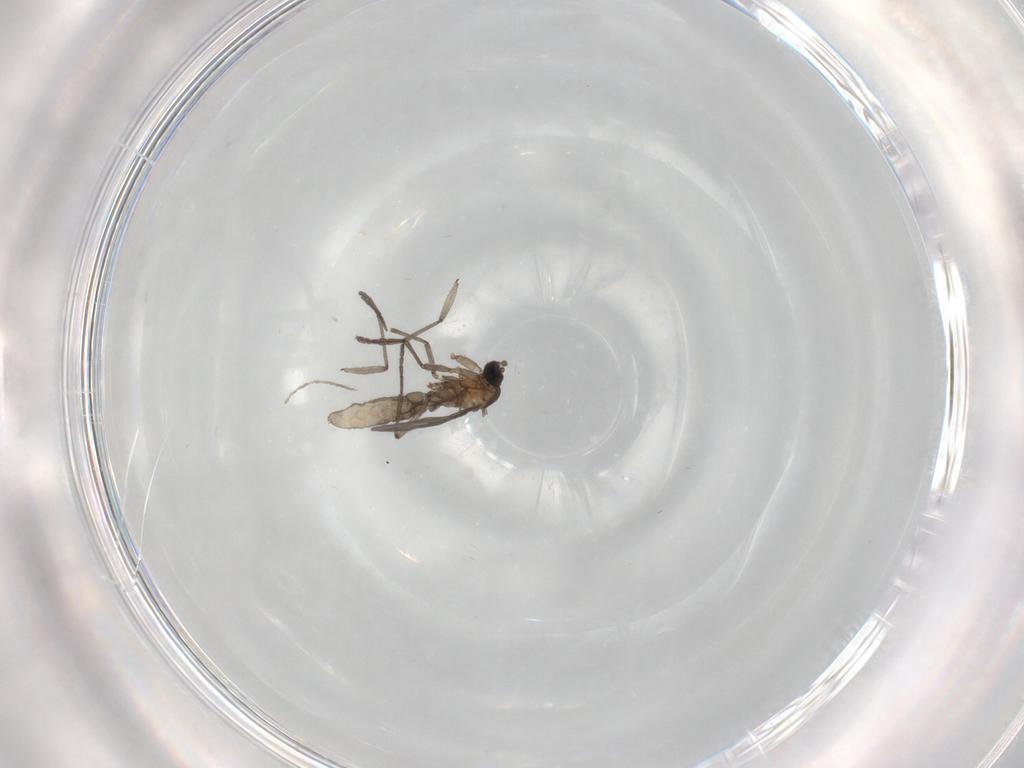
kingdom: Animalia
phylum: Arthropoda
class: Insecta
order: Diptera
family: Sciaridae
